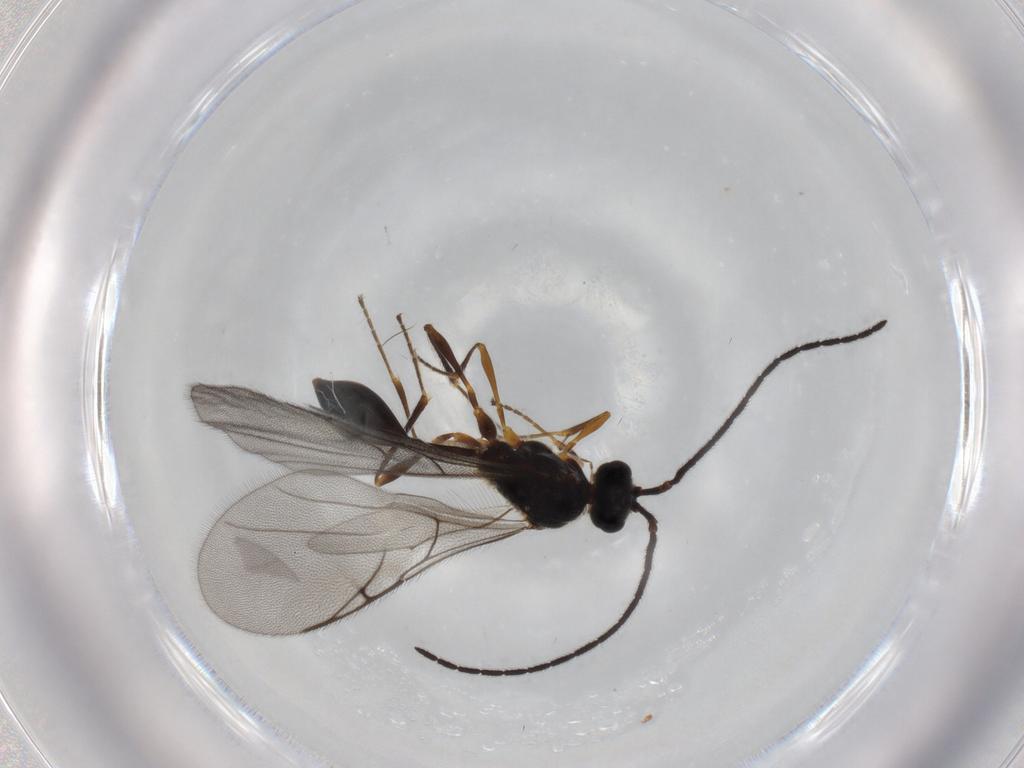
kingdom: Animalia
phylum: Arthropoda
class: Insecta
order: Hymenoptera
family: Diapriidae
